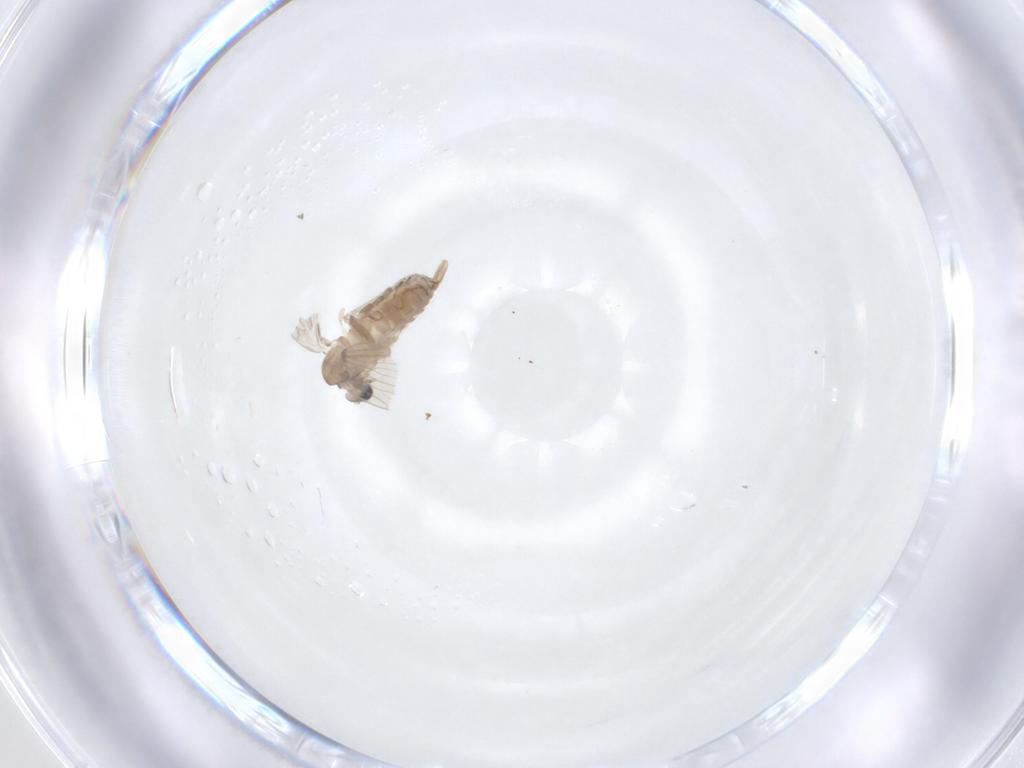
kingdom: Animalia
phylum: Arthropoda
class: Insecta
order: Diptera
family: Psychodidae
